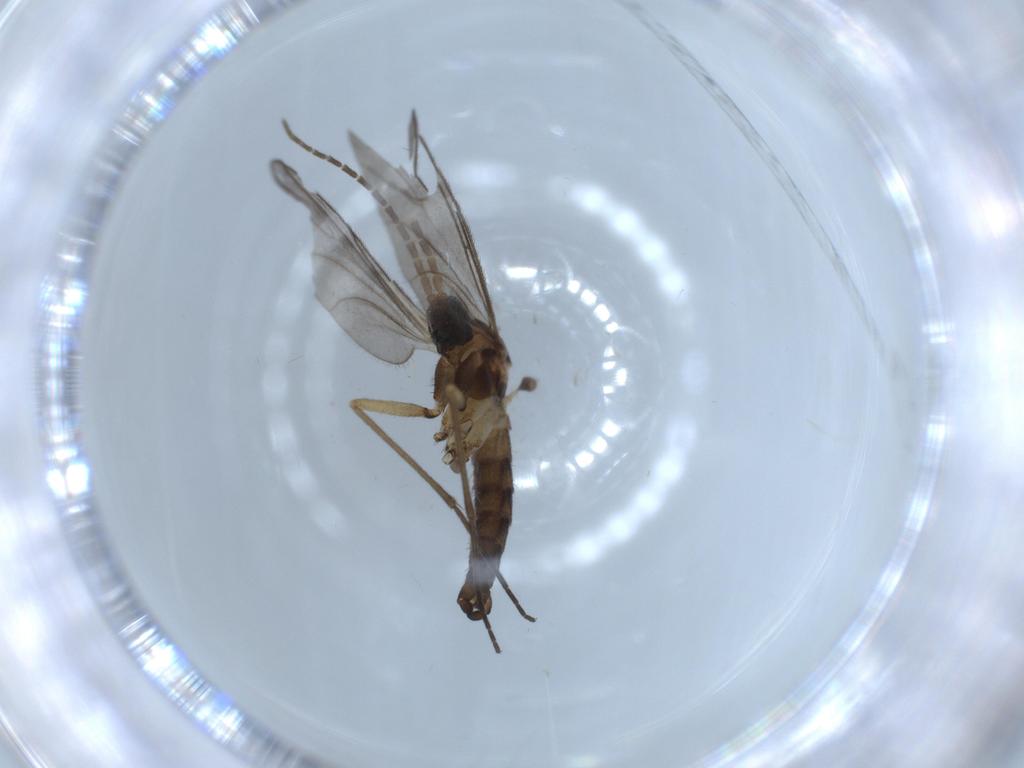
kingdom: Animalia
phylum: Arthropoda
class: Insecta
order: Diptera
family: Sciaridae
